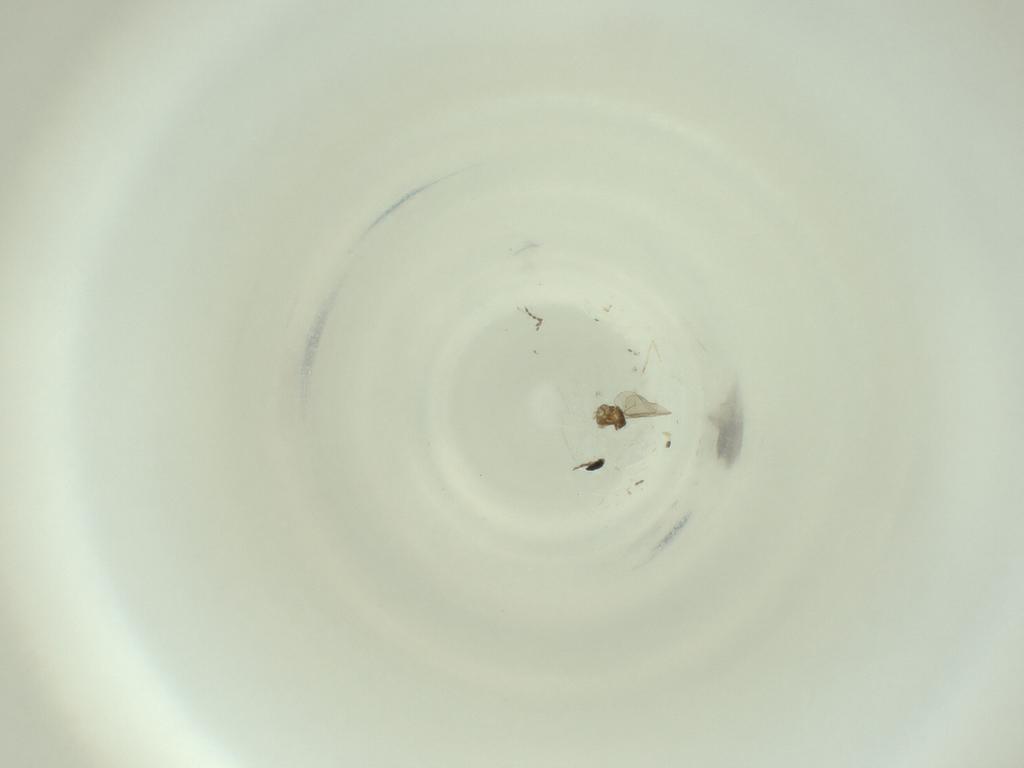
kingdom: Animalia
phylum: Arthropoda
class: Insecta
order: Diptera
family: Cecidomyiidae
